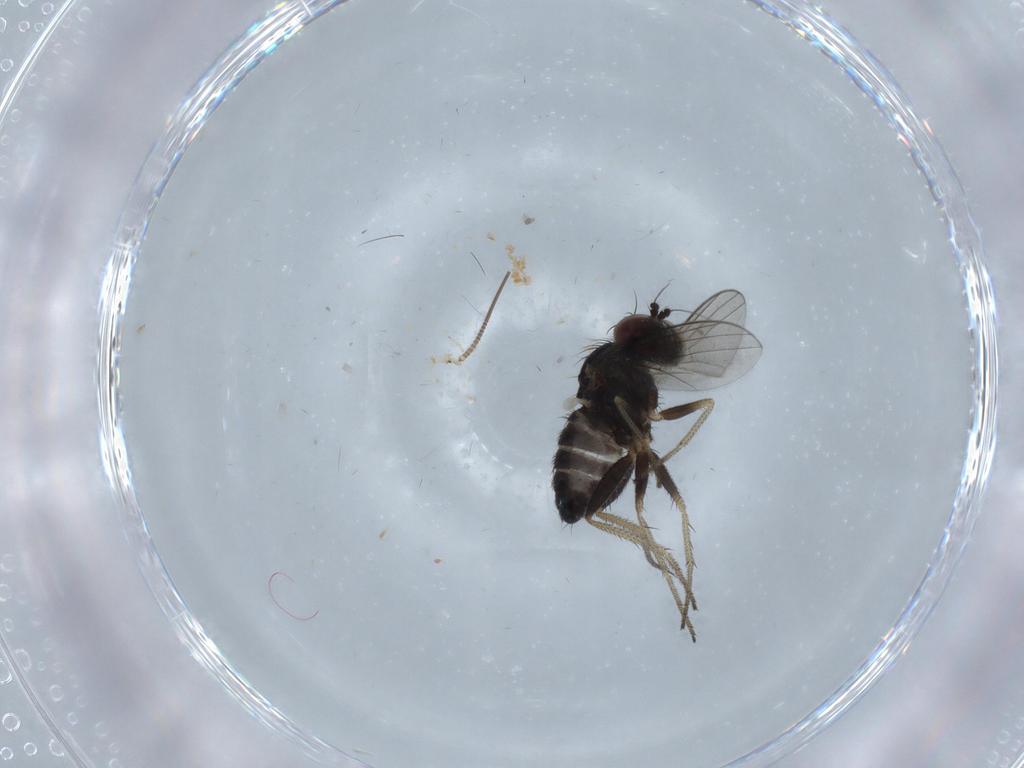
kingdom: Animalia
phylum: Arthropoda
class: Insecta
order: Diptera
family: Dolichopodidae
